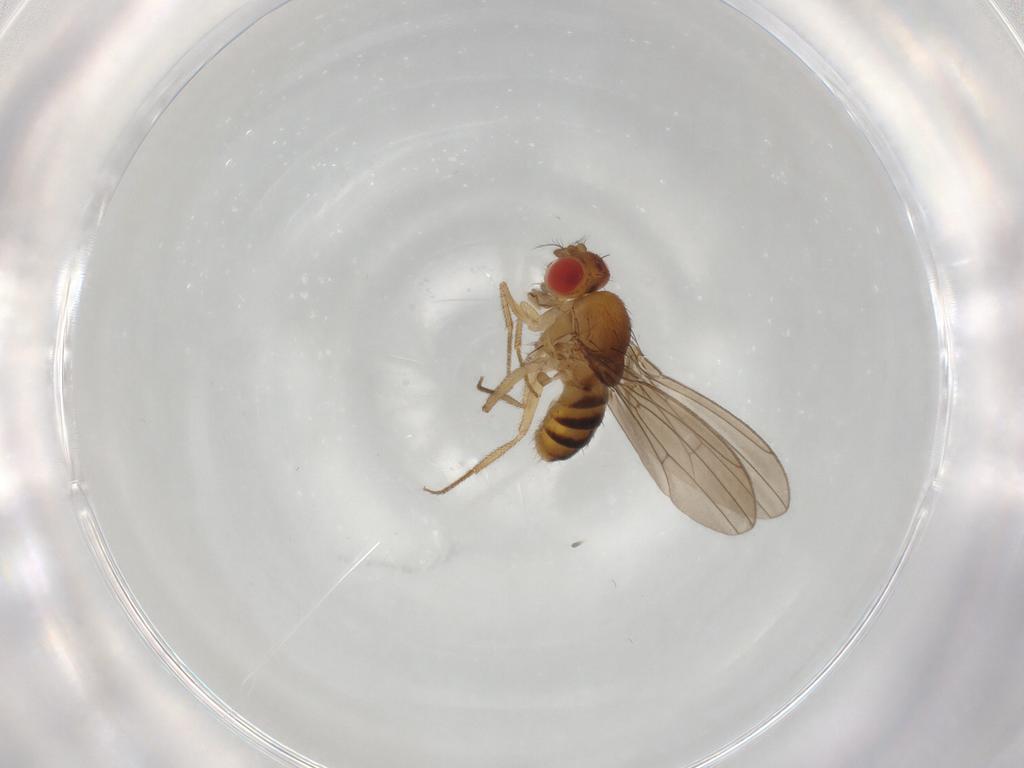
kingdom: Animalia
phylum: Arthropoda
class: Insecta
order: Diptera
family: Drosophilidae
